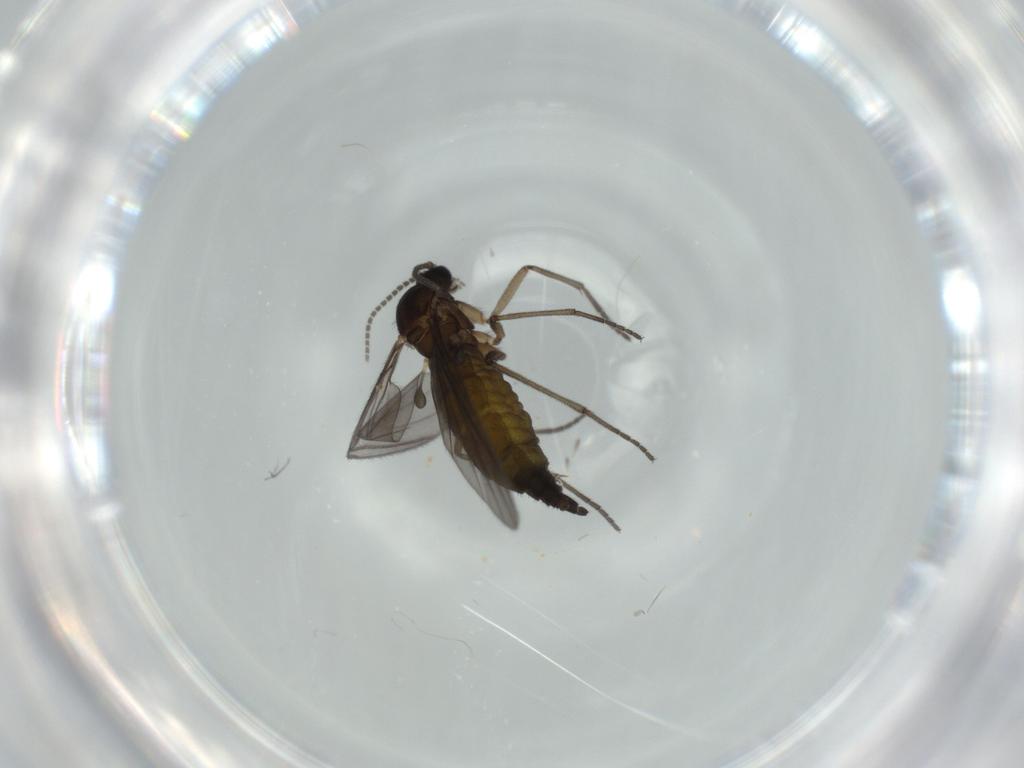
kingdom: Animalia
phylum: Arthropoda
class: Insecta
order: Diptera
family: Sciaridae
